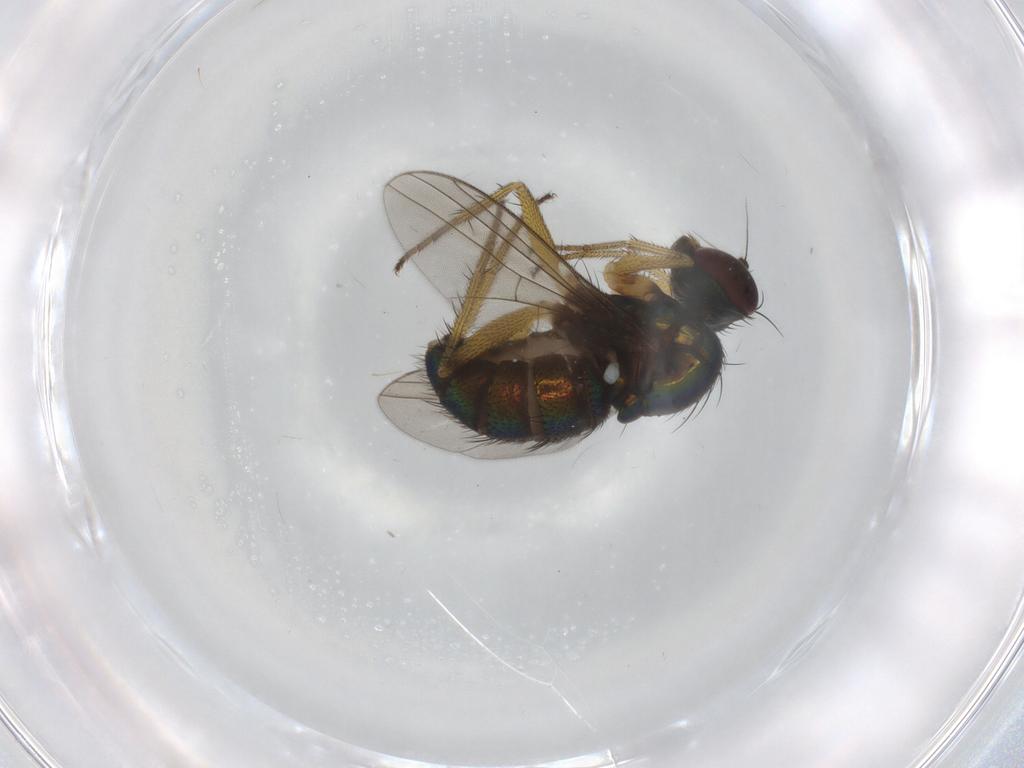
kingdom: Animalia
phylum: Arthropoda
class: Insecta
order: Diptera
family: Dolichopodidae
